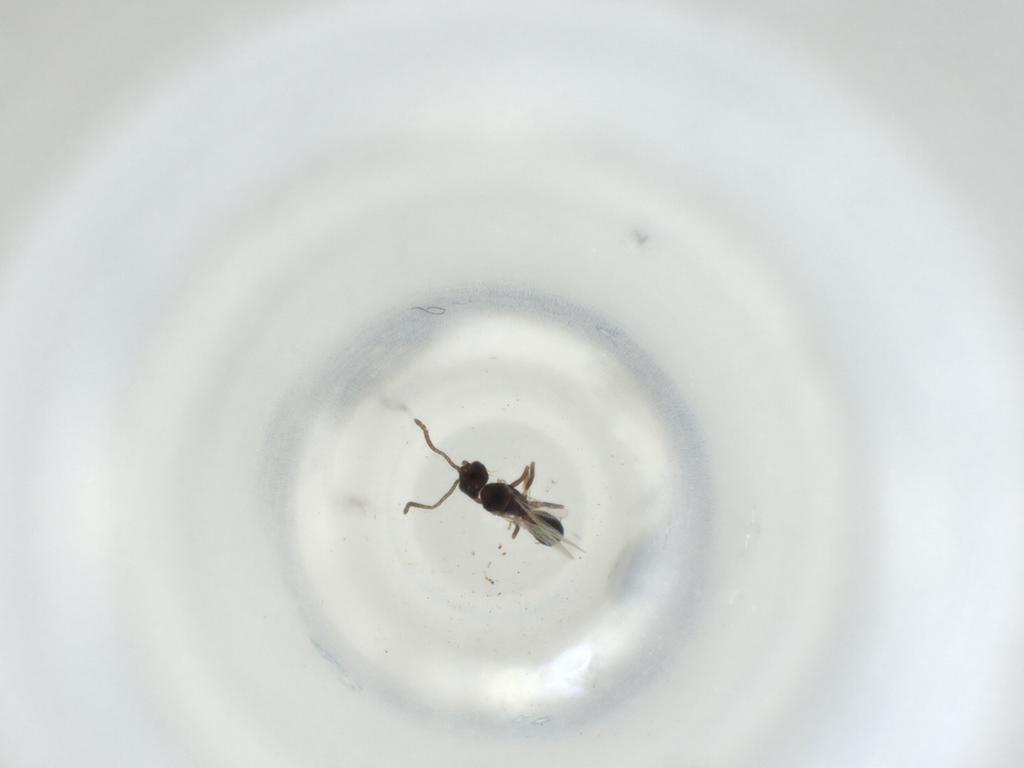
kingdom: Animalia
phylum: Arthropoda
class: Insecta
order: Hymenoptera
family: Formicidae
